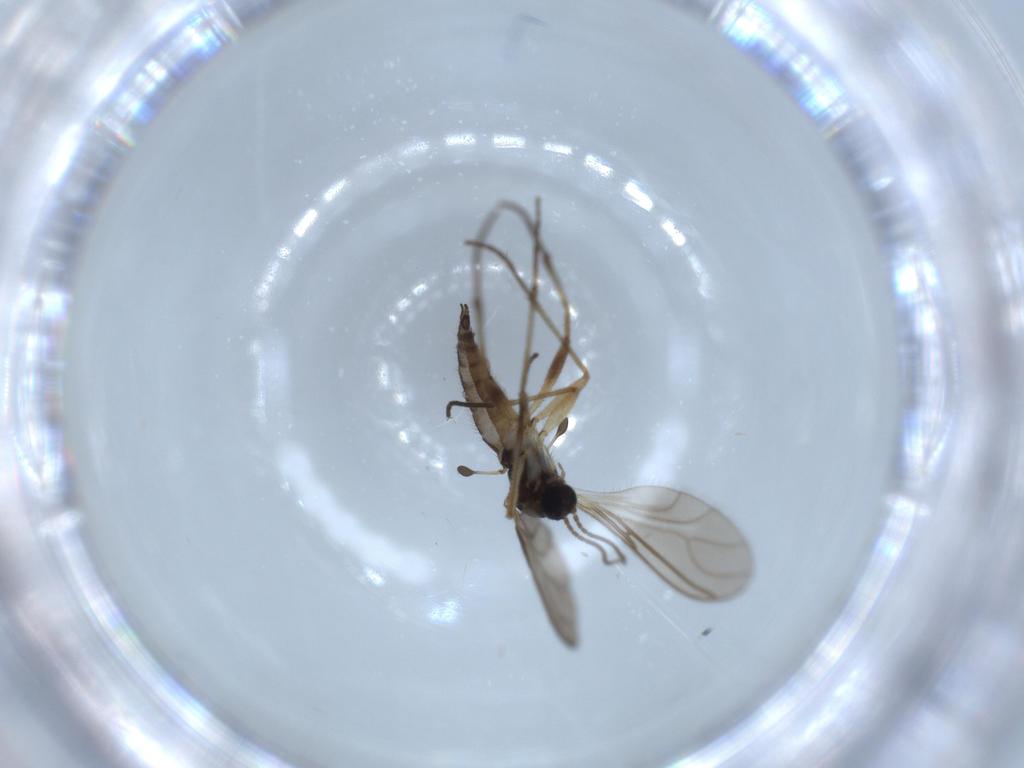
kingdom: Animalia
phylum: Arthropoda
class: Insecta
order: Diptera
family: Sciaridae
